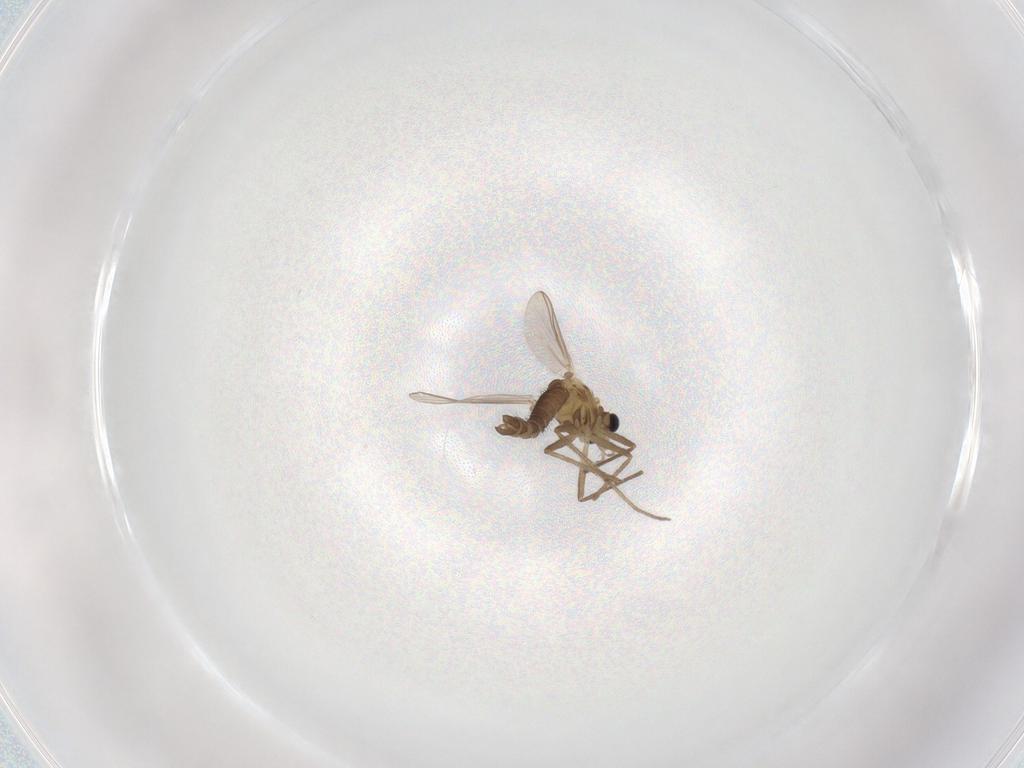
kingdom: Animalia
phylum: Arthropoda
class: Insecta
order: Diptera
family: Chironomidae
